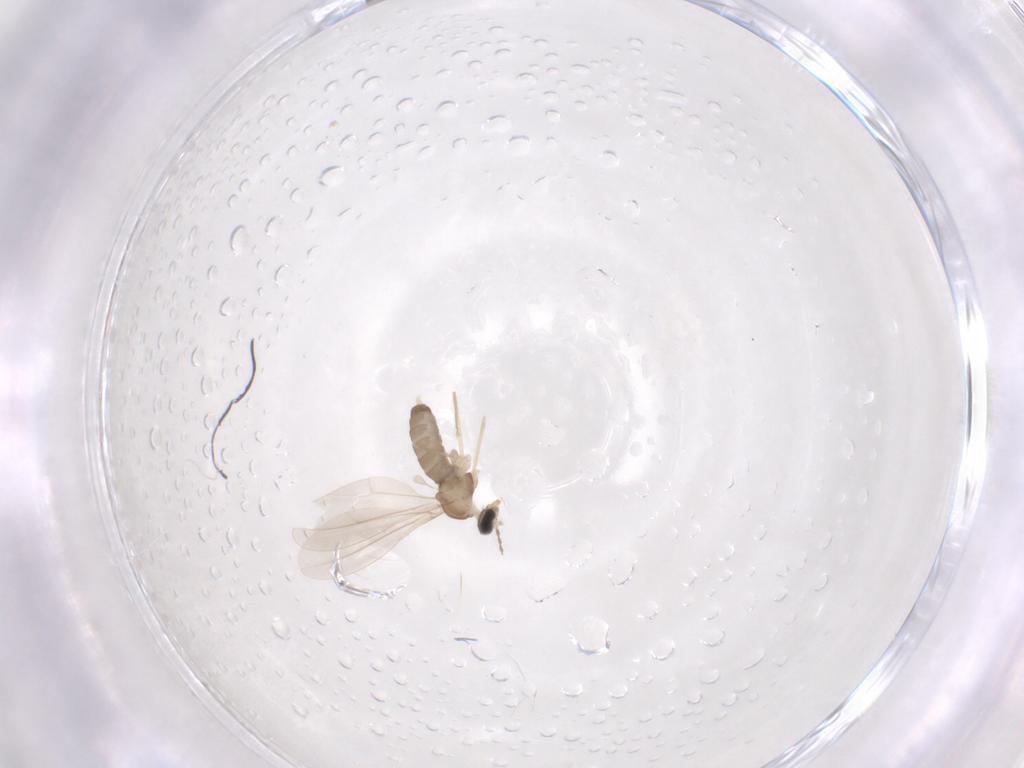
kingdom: Animalia
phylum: Arthropoda
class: Insecta
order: Diptera
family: Cecidomyiidae
